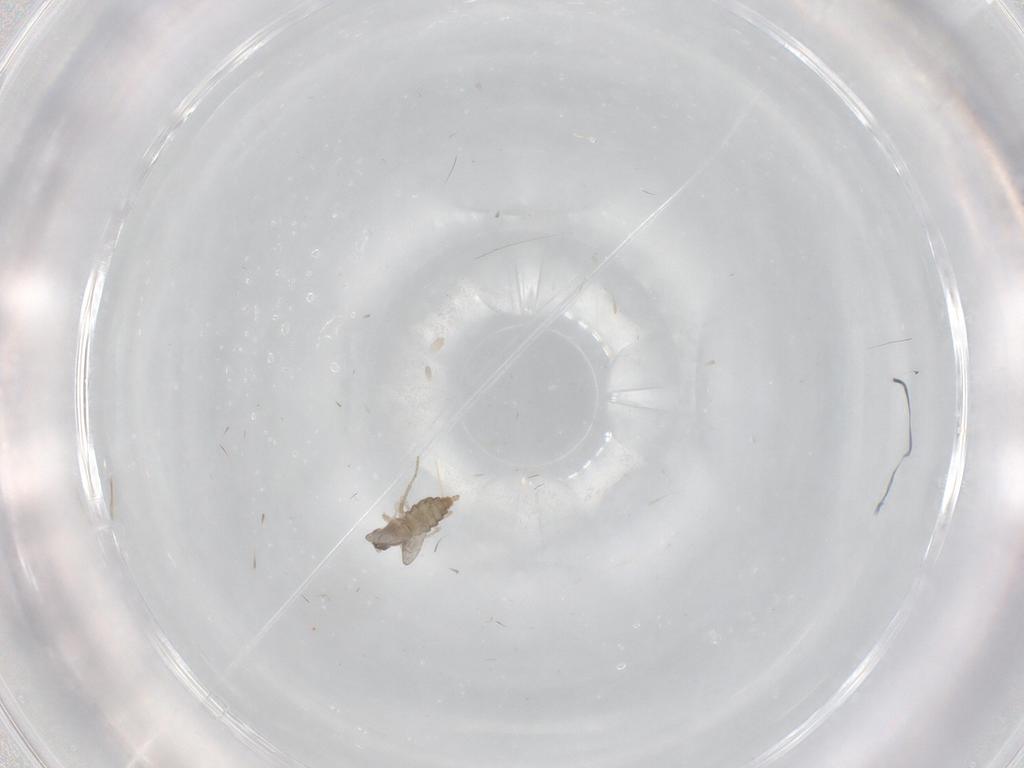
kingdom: Animalia
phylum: Arthropoda
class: Insecta
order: Diptera
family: Cecidomyiidae
